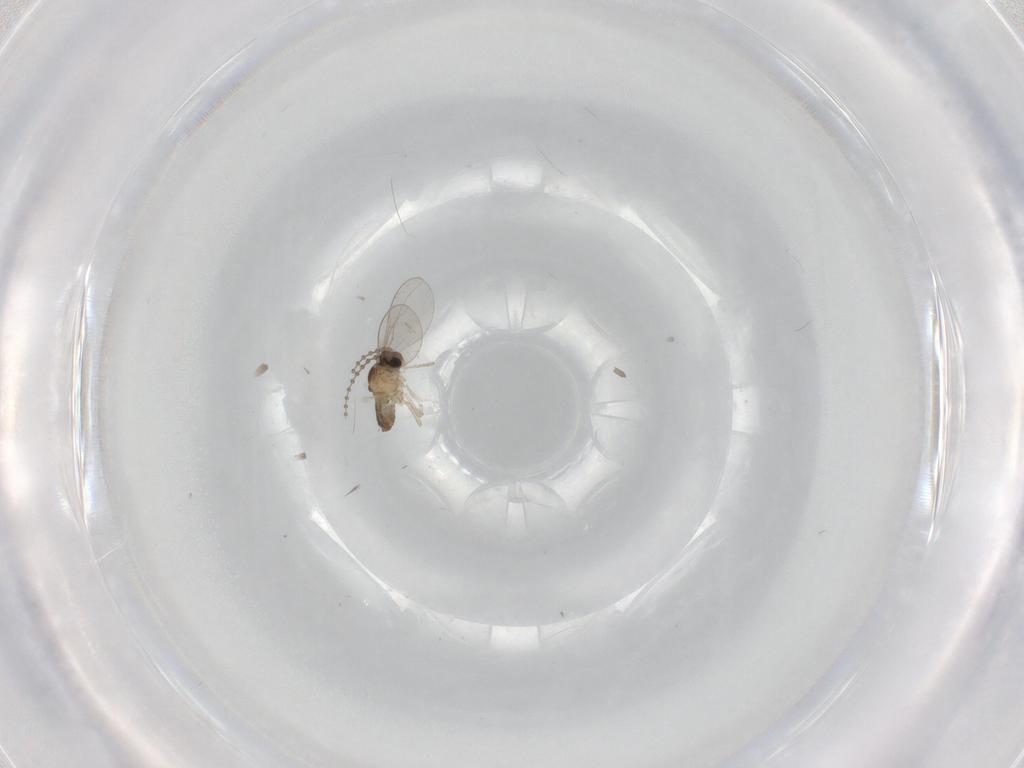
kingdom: Animalia
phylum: Arthropoda
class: Insecta
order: Diptera
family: Cecidomyiidae
